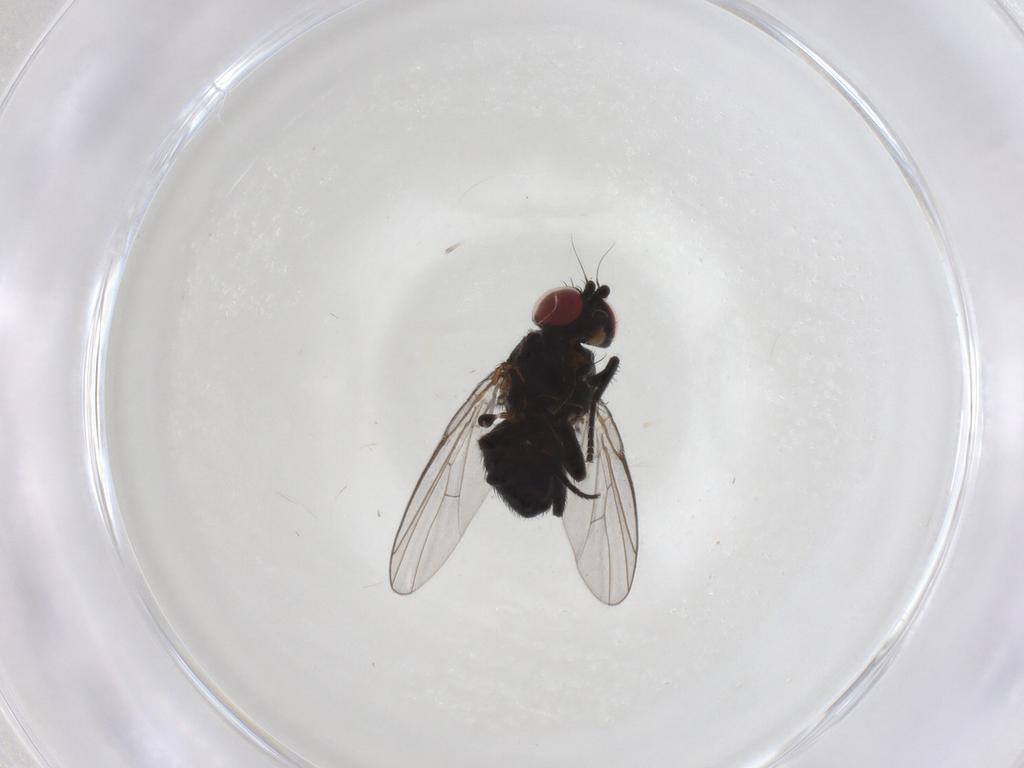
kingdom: Animalia
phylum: Arthropoda
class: Insecta
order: Diptera
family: Agromyzidae
